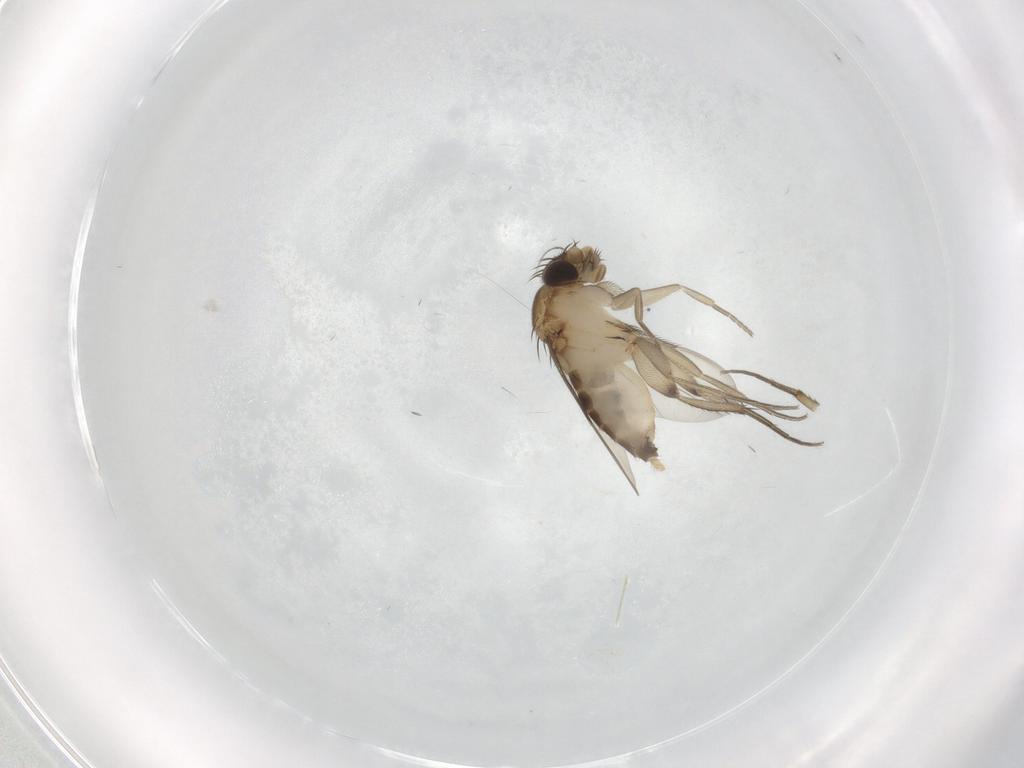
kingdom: Animalia
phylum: Arthropoda
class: Insecta
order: Diptera
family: Phoridae
